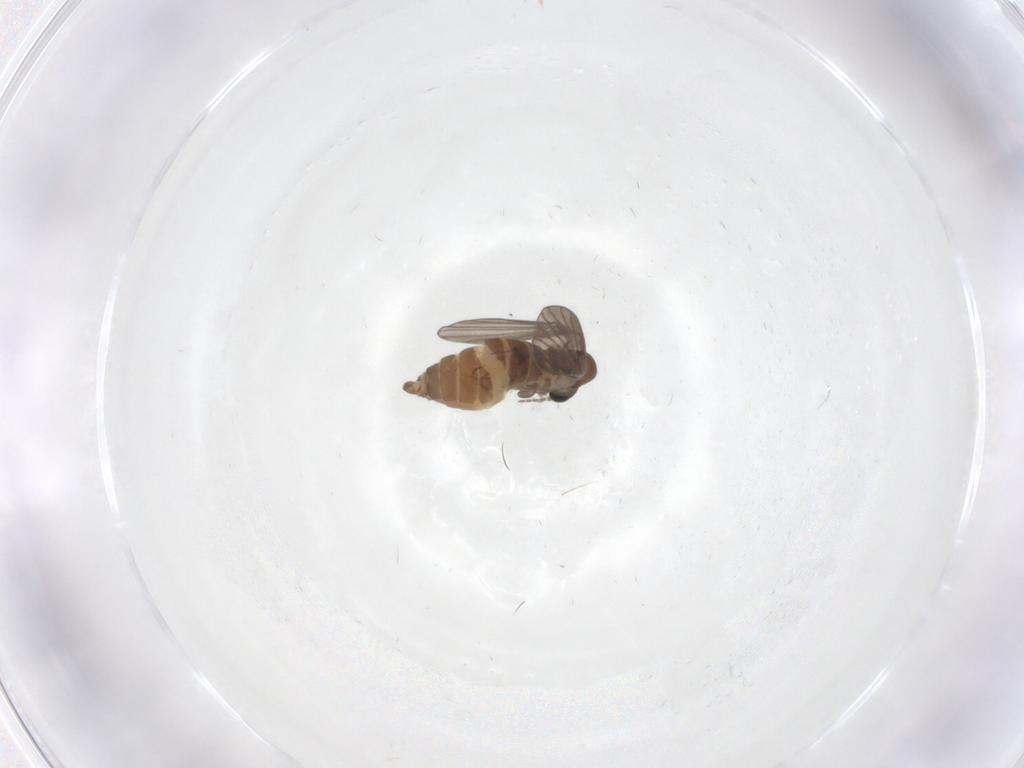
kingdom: Animalia
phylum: Arthropoda
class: Insecta
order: Diptera
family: Psychodidae
